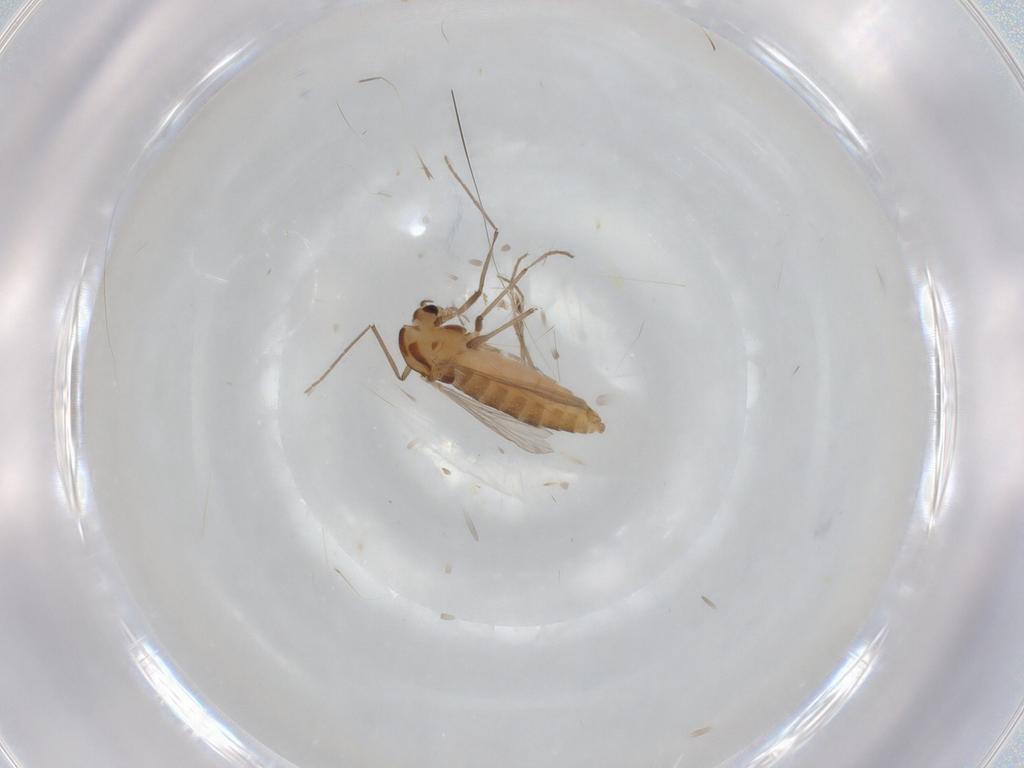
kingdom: Animalia
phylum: Arthropoda
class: Insecta
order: Diptera
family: Chironomidae
